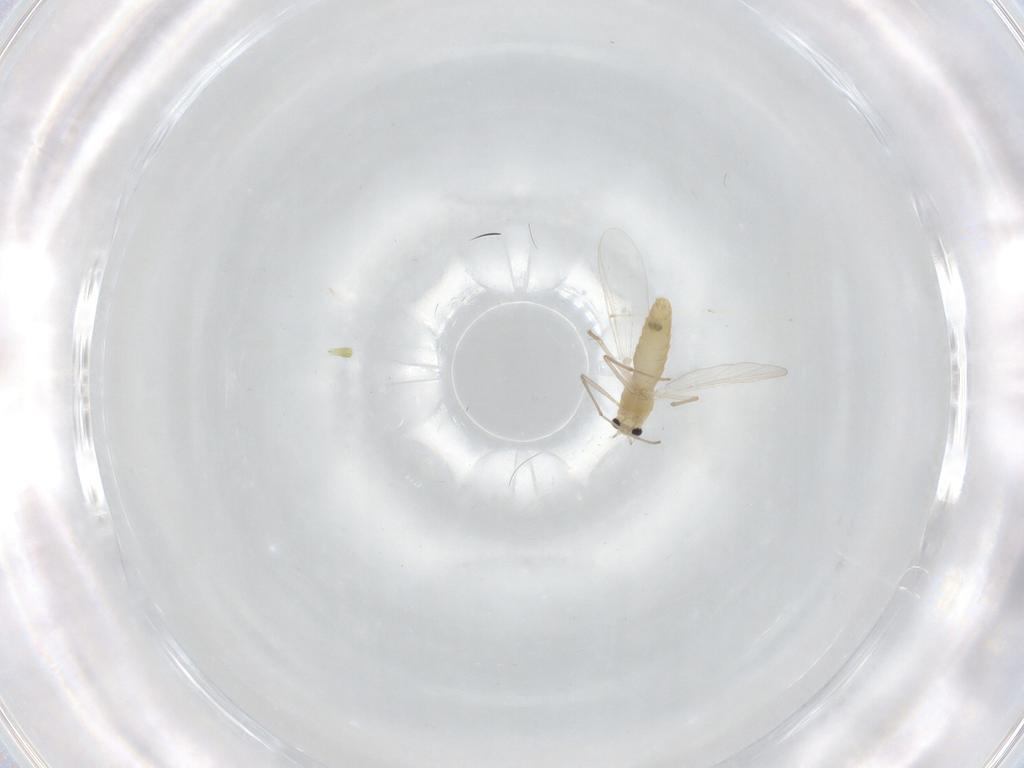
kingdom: Animalia
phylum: Arthropoda
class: Insecta
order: Diptera
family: Chironomidae
